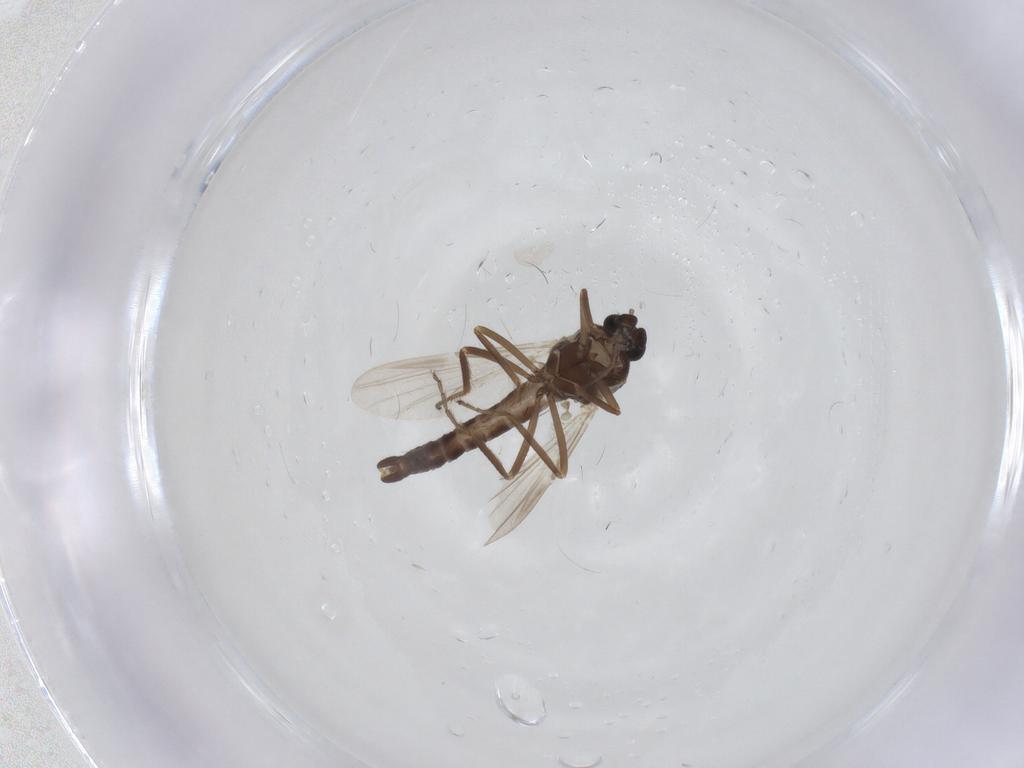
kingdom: Animalia
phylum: Arthropoda
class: Insecta
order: Diptera
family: Ceratopogonidae
